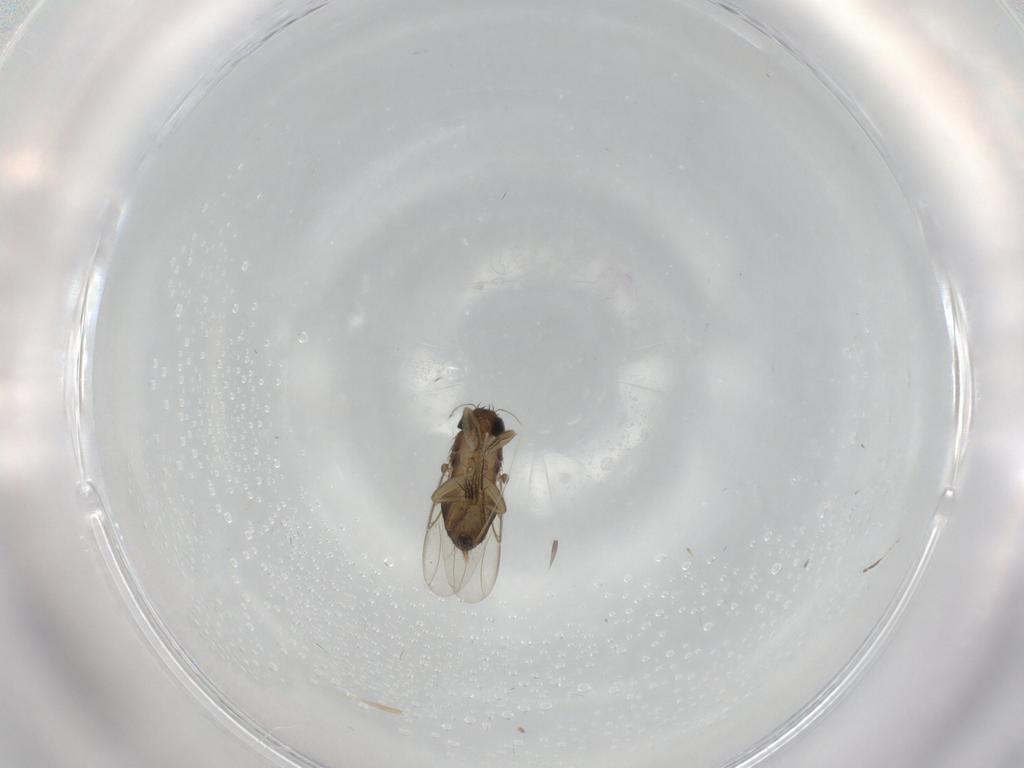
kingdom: Animalia
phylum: Arthropoda
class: Insecta
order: Diptera
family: Phoridae
